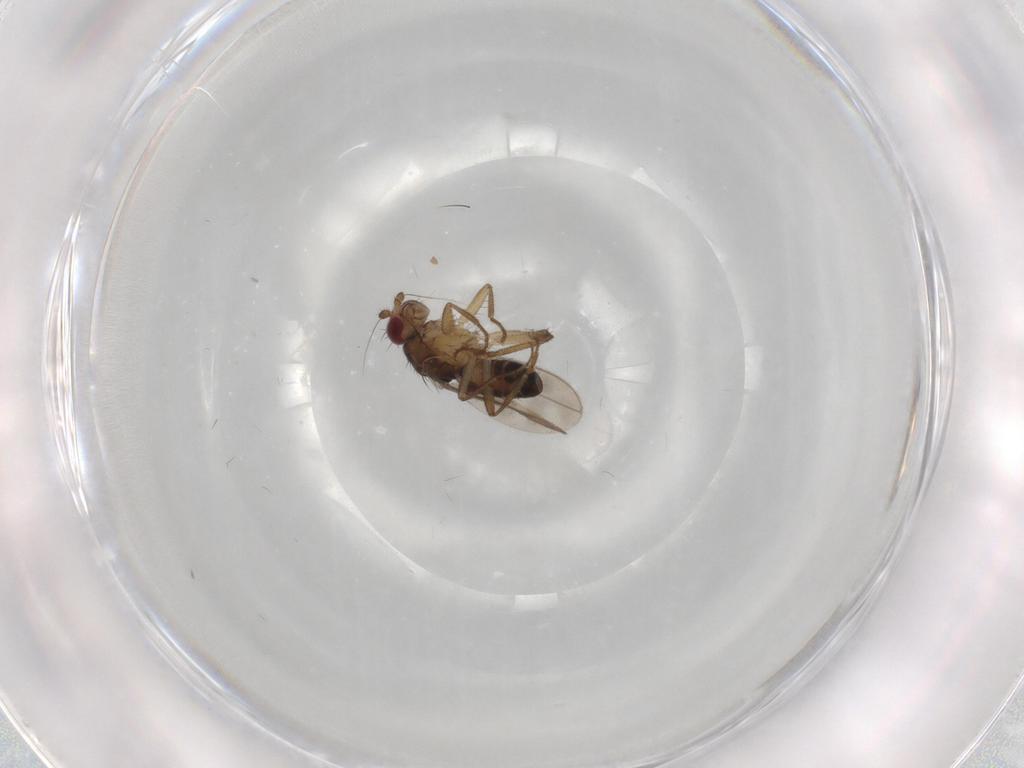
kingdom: Animalia
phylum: Arthropoda
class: Insecta
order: Diptera
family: Sphaeroceridae
